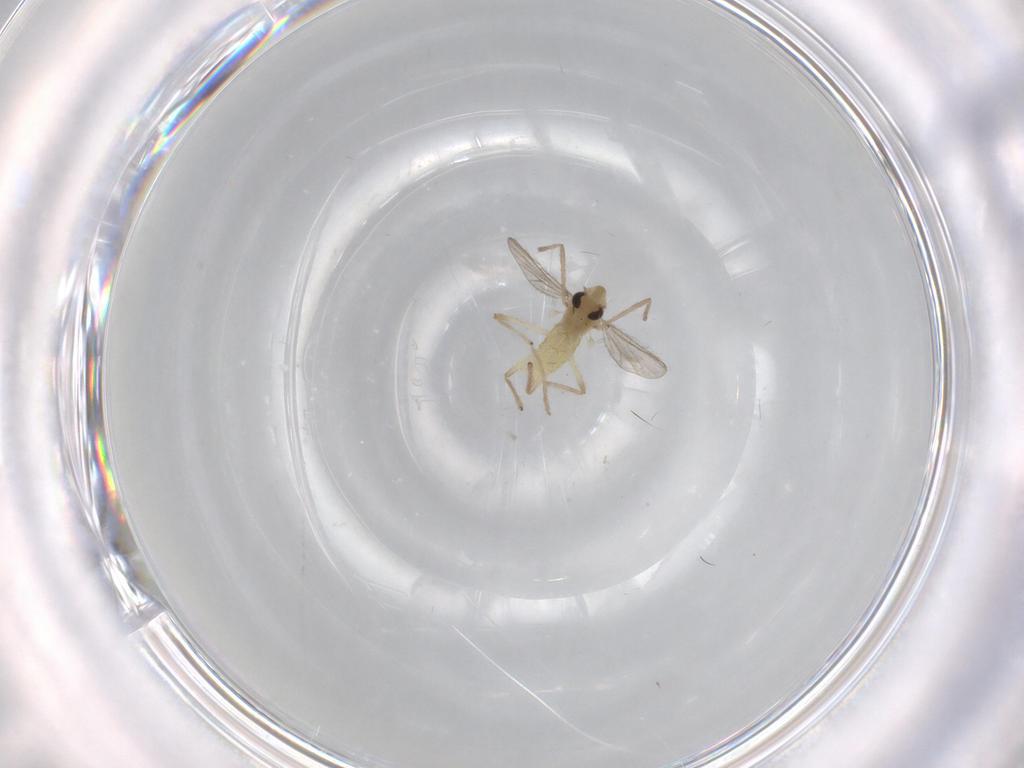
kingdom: Animalia
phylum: Arthropoda
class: Insecta
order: Diptera
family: Chironomidae
